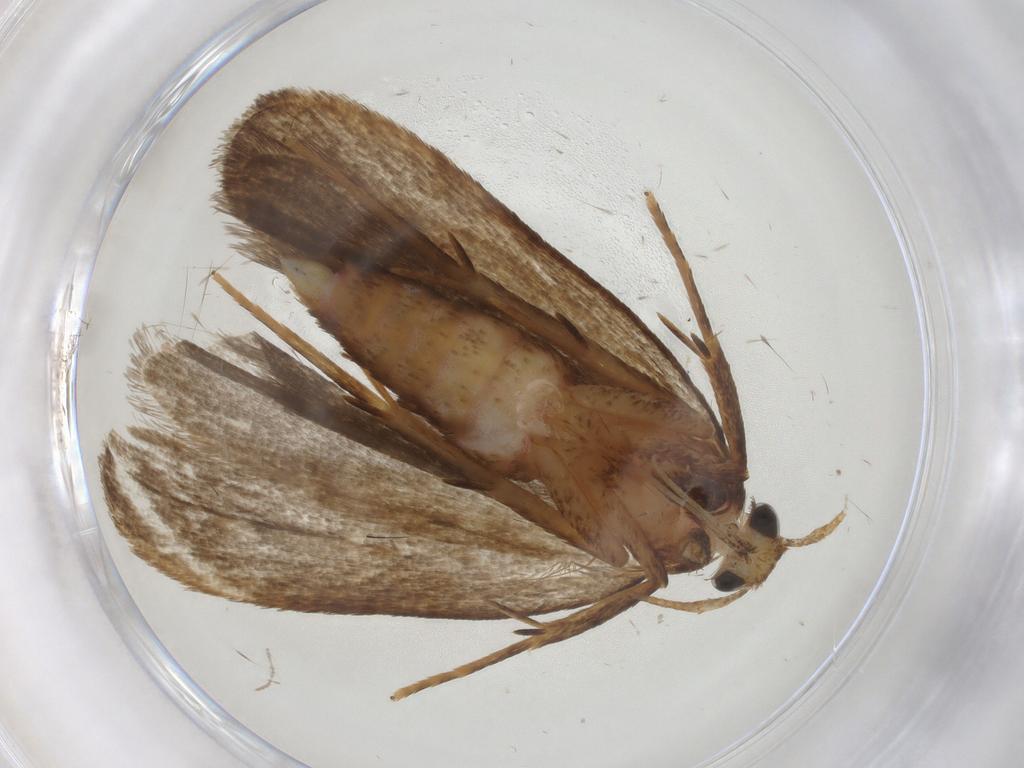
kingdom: Animalia
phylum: Arthropoda
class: Insecta
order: Lepidoptera
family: Autostichidae
